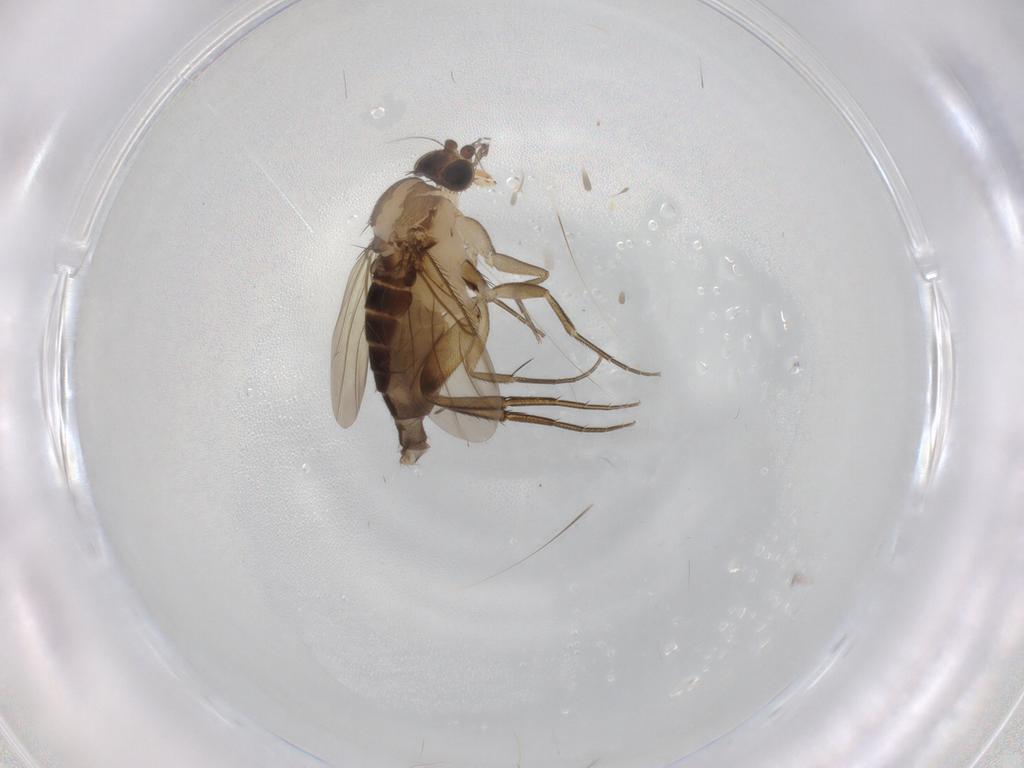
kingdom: Animalia
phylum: Arthropoda
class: Insecta
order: Diptera
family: Phoridae
